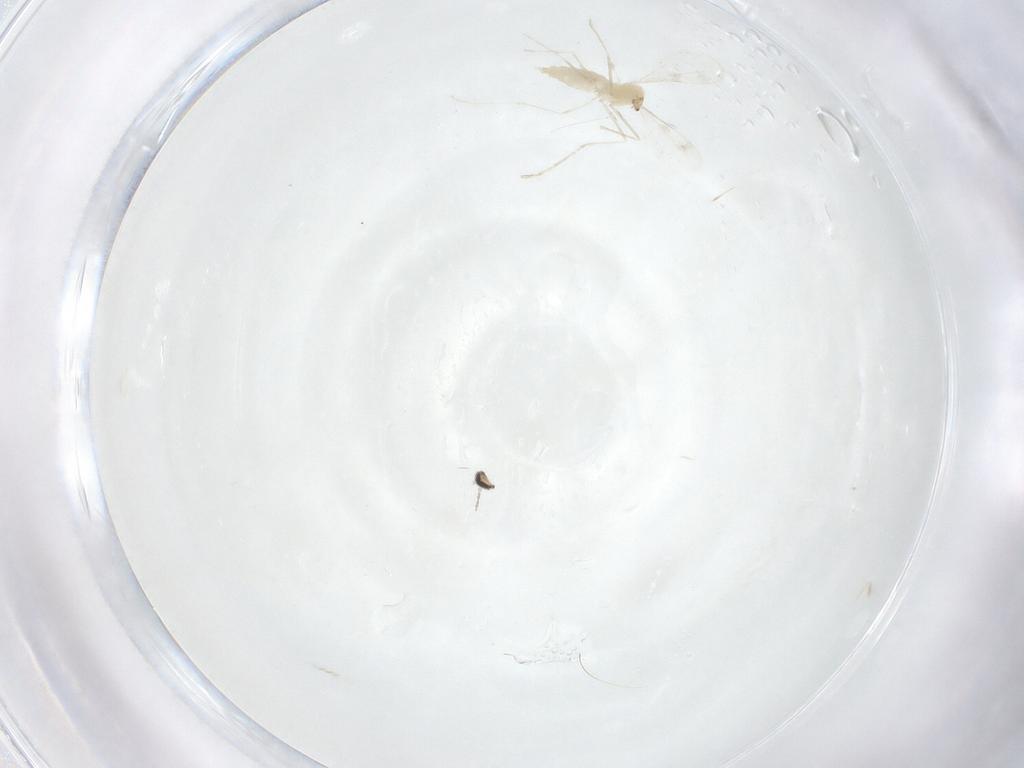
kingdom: Animalia
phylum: Arthropoda
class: Insecta
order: Diptera
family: Cecidomyiidae
